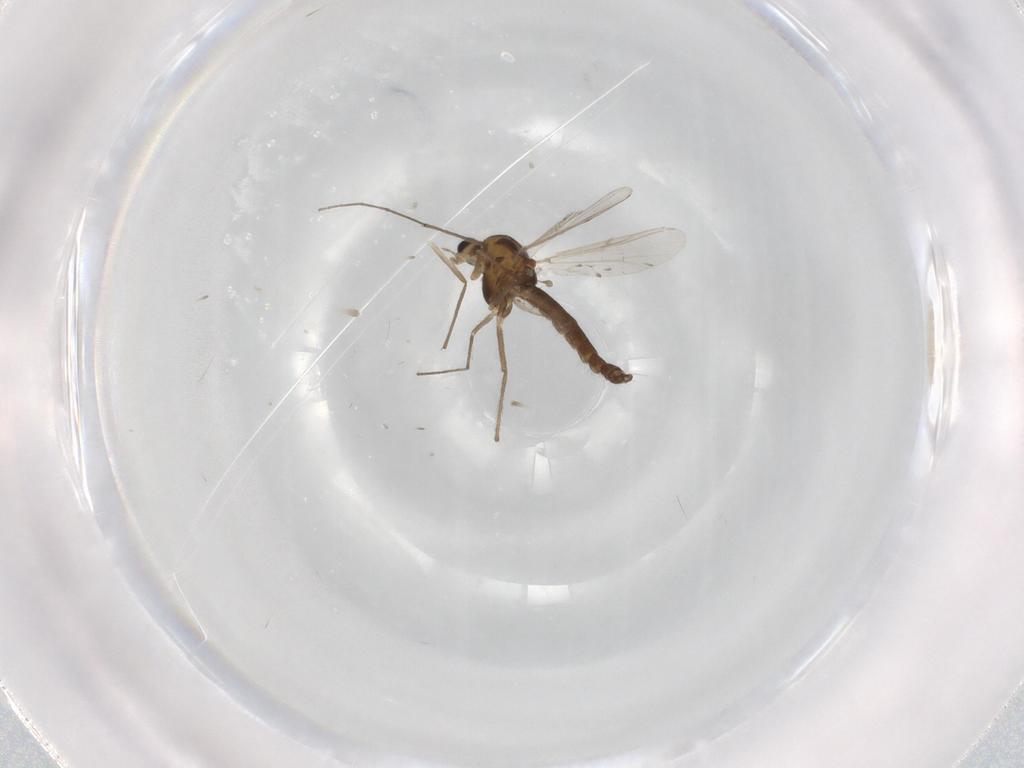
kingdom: Animalia
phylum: Arthropoda
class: Insecta
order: Diptera
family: Chironomidae
